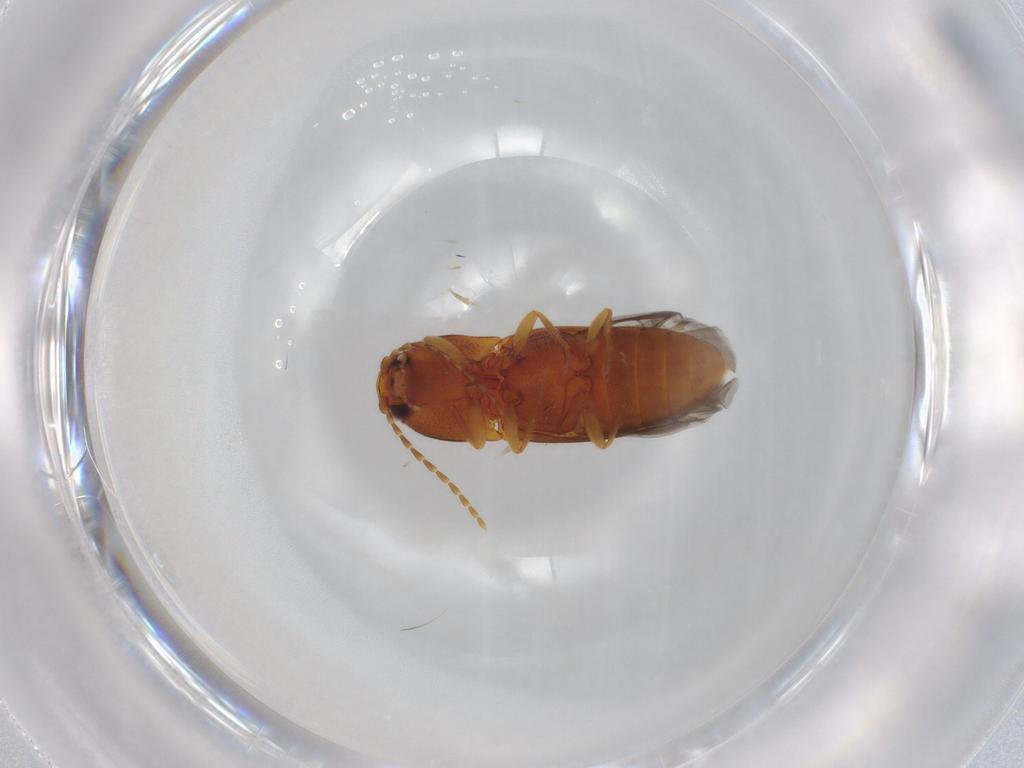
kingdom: Animalia
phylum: Arthropoda
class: Insecta
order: Coleoptera
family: Elateridae
